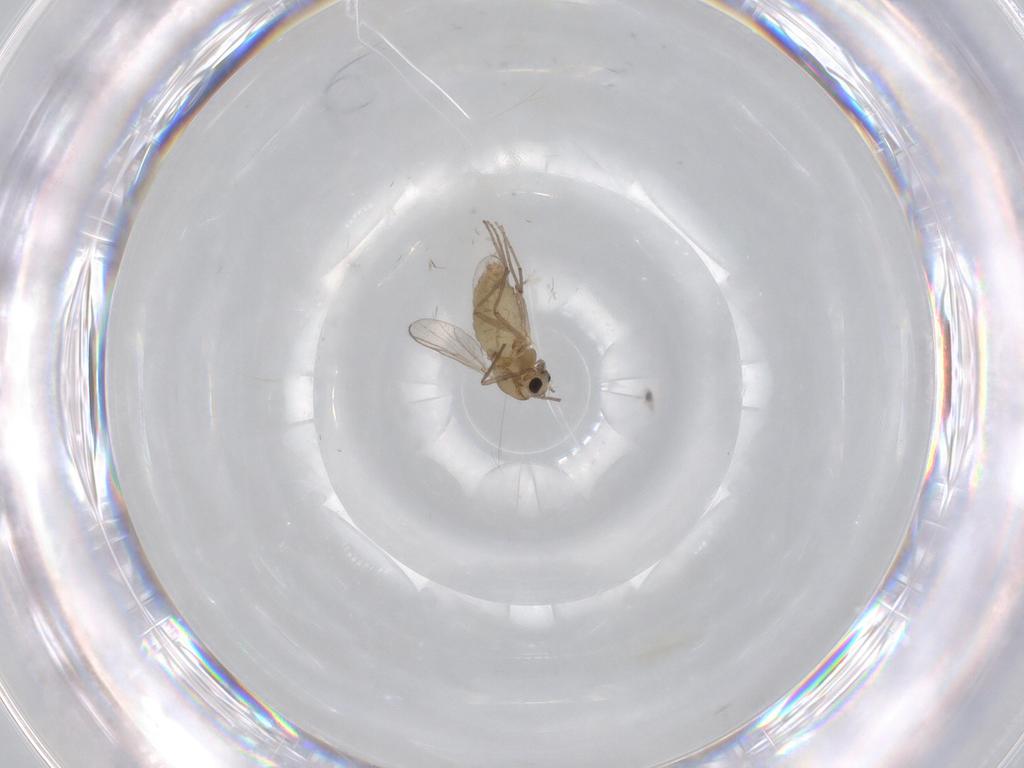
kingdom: Animalia
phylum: Arthropoda
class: Insecta
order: Diptera
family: Chironomidae
